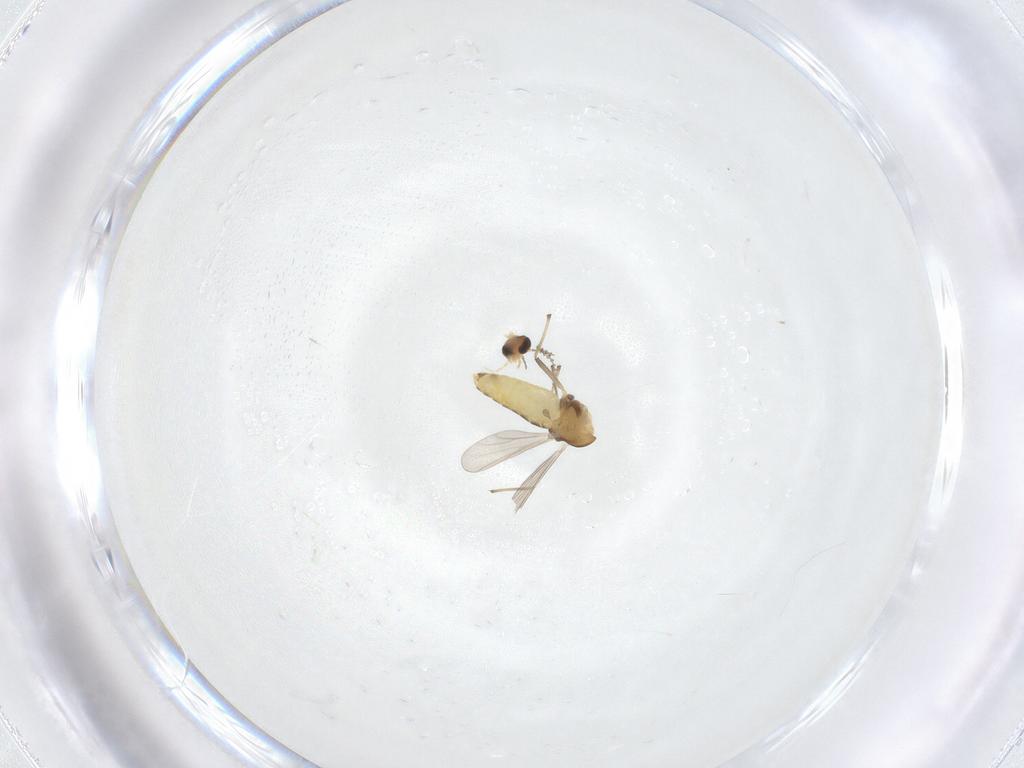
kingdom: Animalia
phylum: Arthropoda
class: Insecta
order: Diptera
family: Chironomidae
